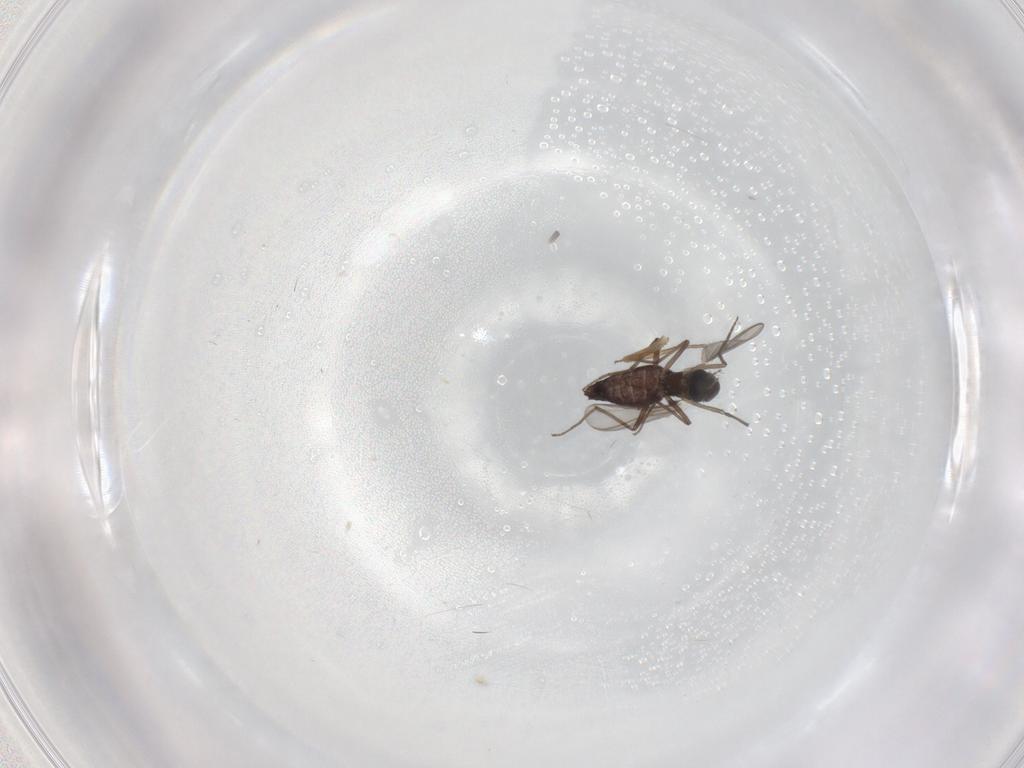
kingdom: Animalia
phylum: Arthropoda
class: Insecta
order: Diptera
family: Chironomidae
